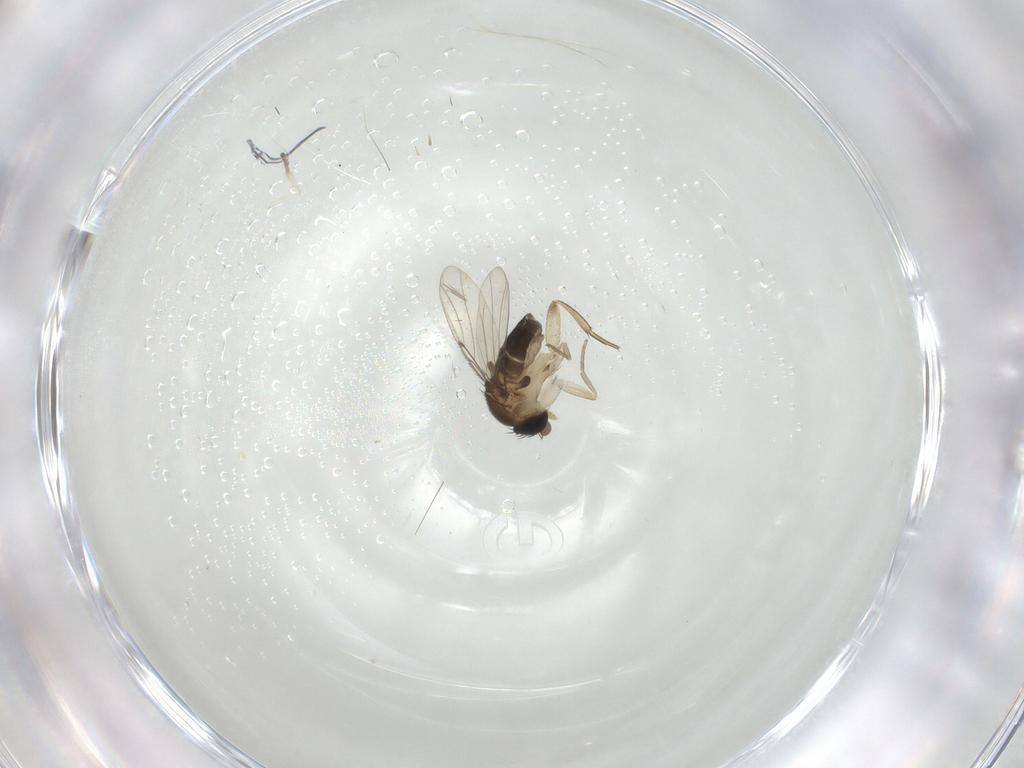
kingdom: Animalia
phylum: Arthropoda
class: Insecta
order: Diptera
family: Psychodidae
